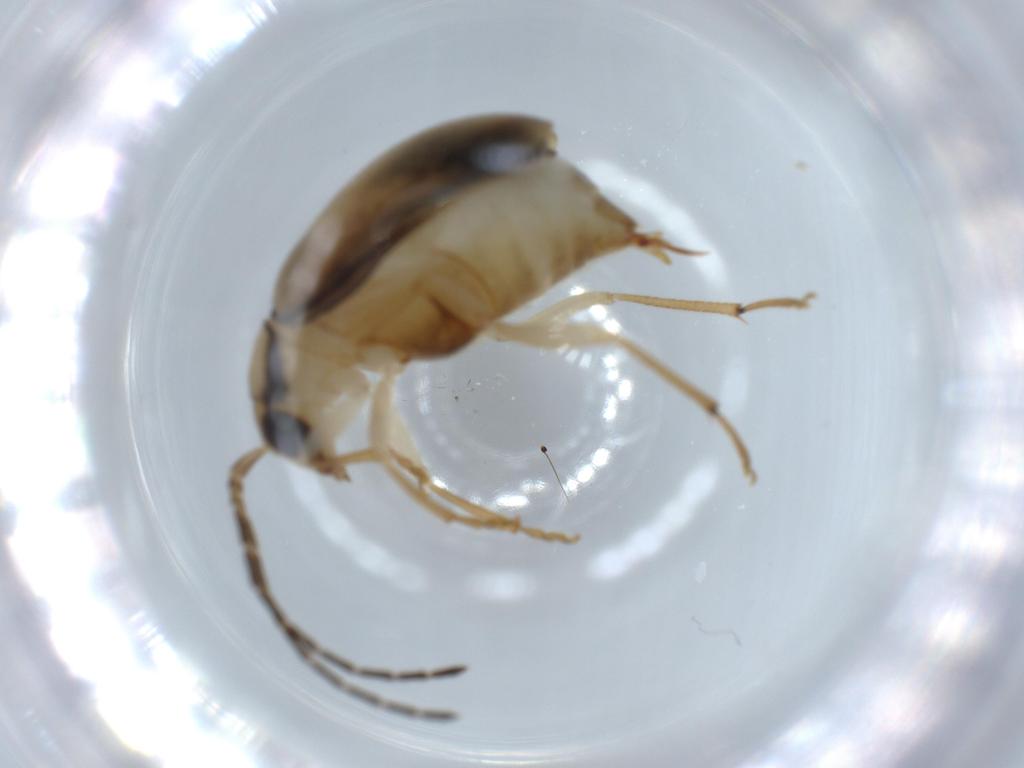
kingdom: Animalia
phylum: Arthropoda
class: Insecta
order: Coleoptera
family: Chrysomelidae
